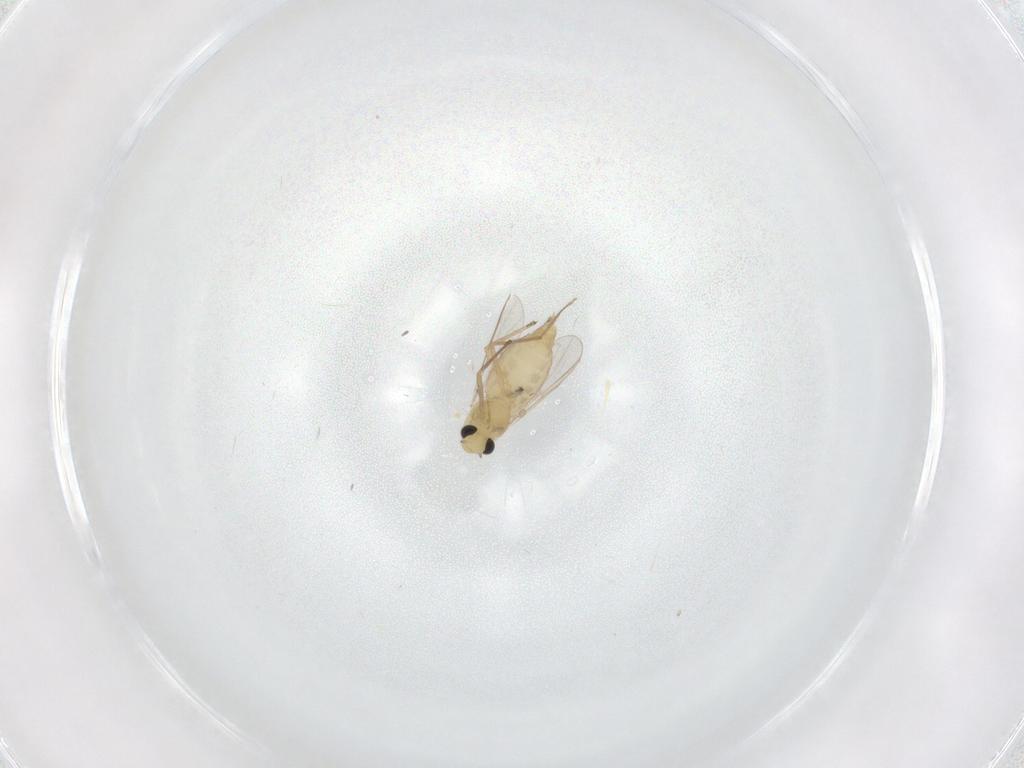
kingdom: Animalia
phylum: Arthropoda
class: Insecta
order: Diptera
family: Chironomidae
